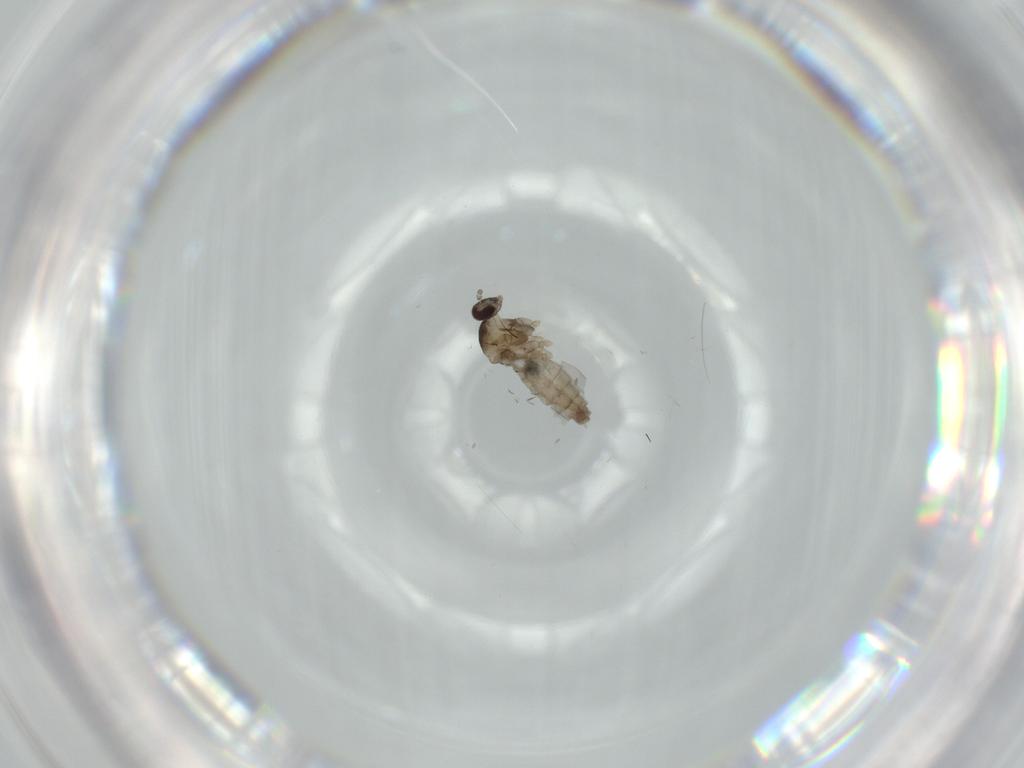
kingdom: Animalia
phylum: Arthropoda
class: Insecta
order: Diptera
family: Cecidomyiidae
